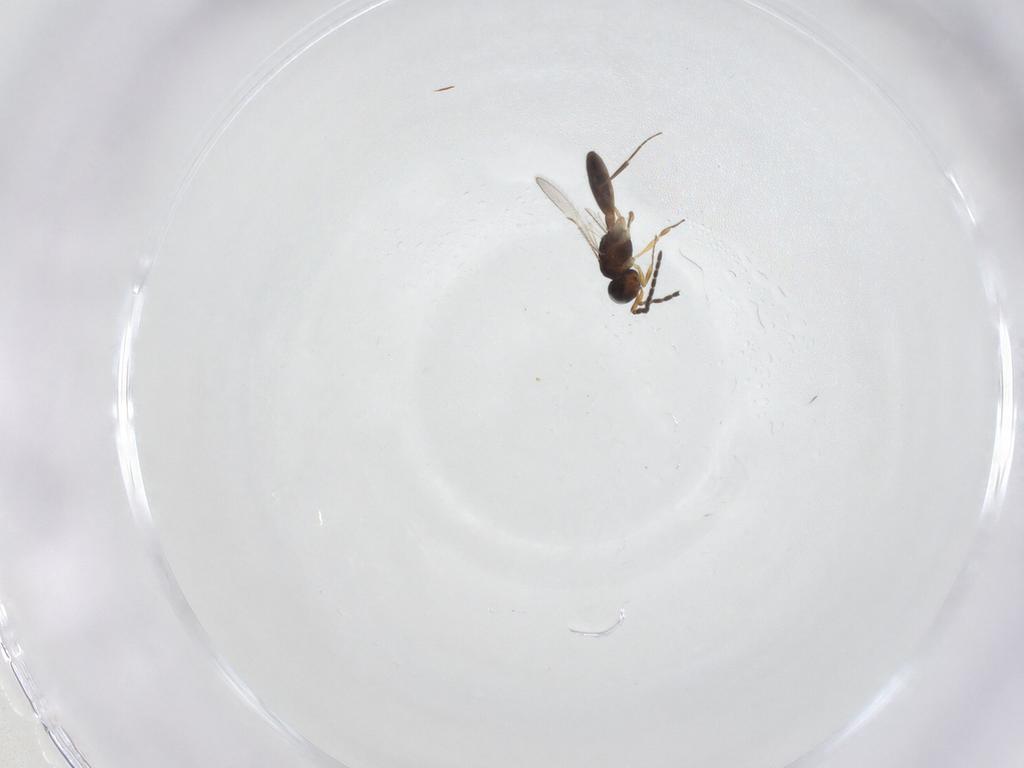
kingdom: Animalia
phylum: Arthropoda
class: Insecta
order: Hymenoptera
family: Scelionidae
